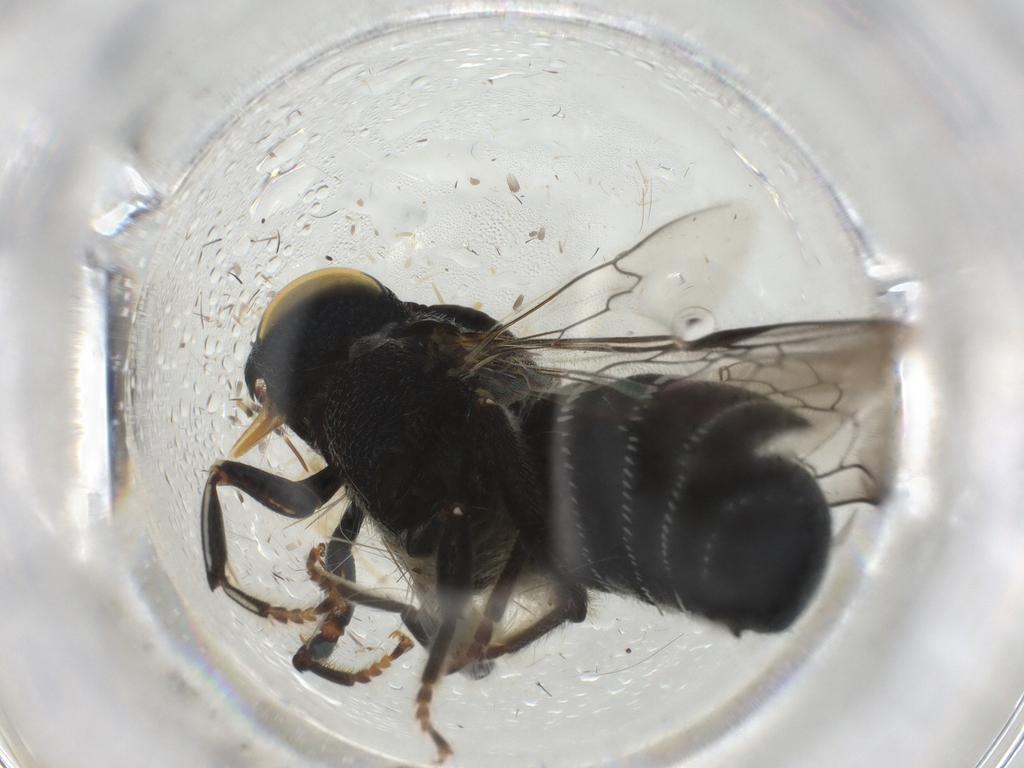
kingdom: Animalia
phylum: Arthropoda
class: Insecta
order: Hymenoptera
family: Apidae
